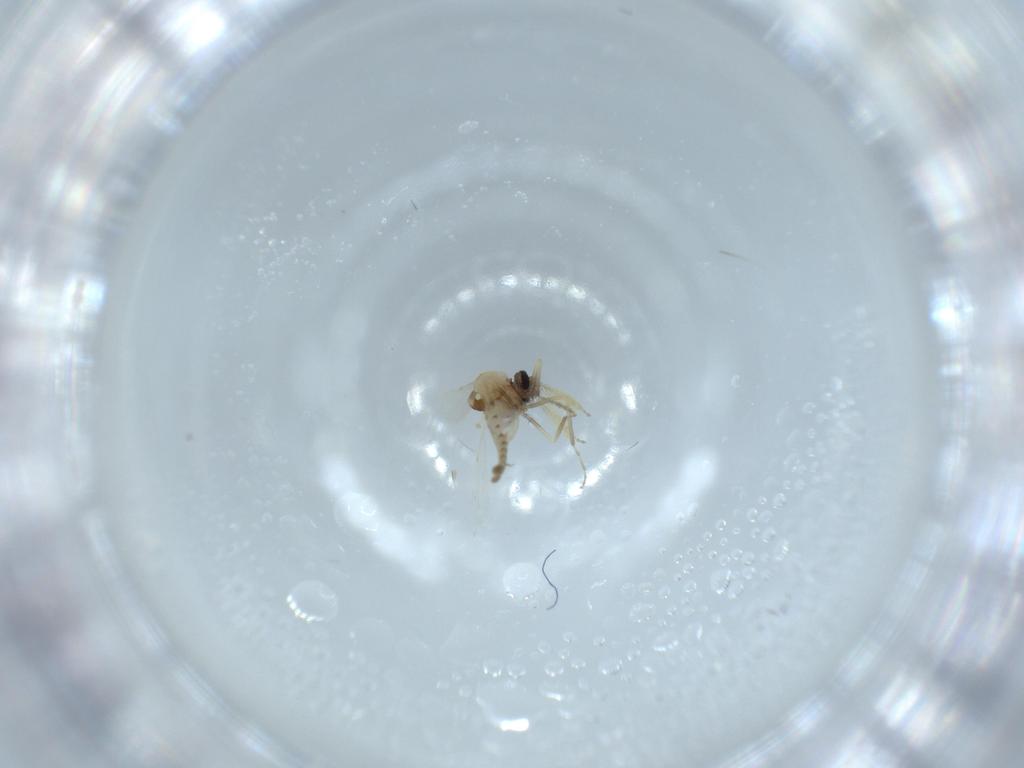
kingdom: Animalia
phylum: Arthropoda
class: Insecta
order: Diptera
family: Ceratopogonidae
